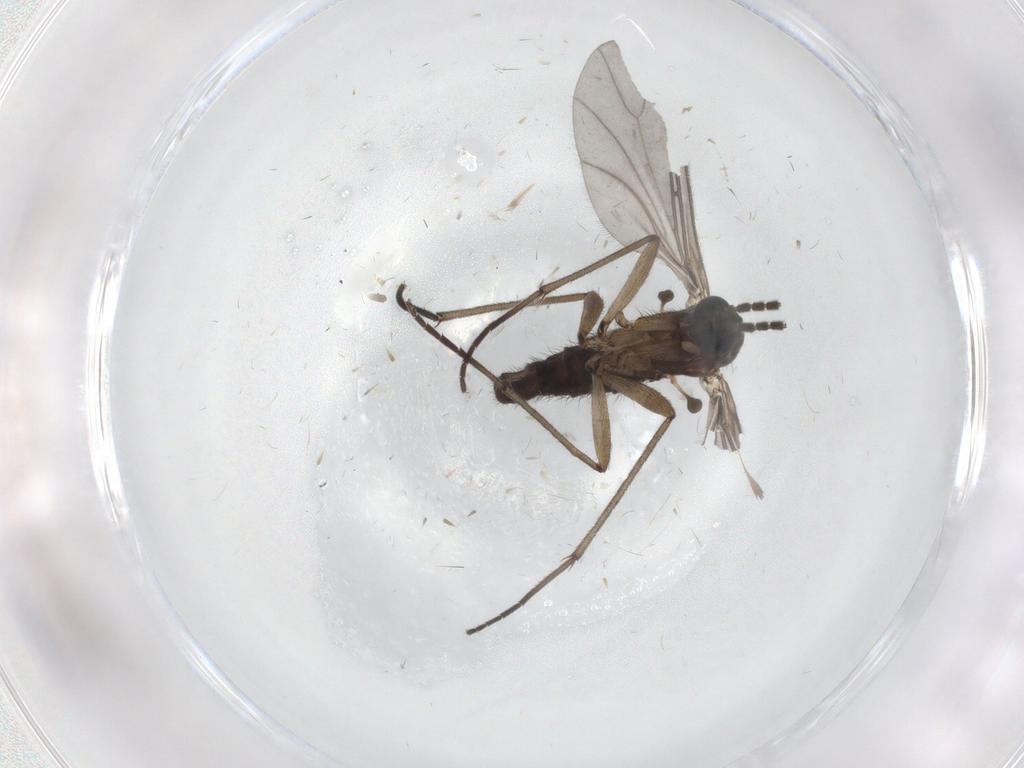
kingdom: Animalia
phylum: Arthropoda
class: Insecta
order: Diptera
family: Sciaridae
